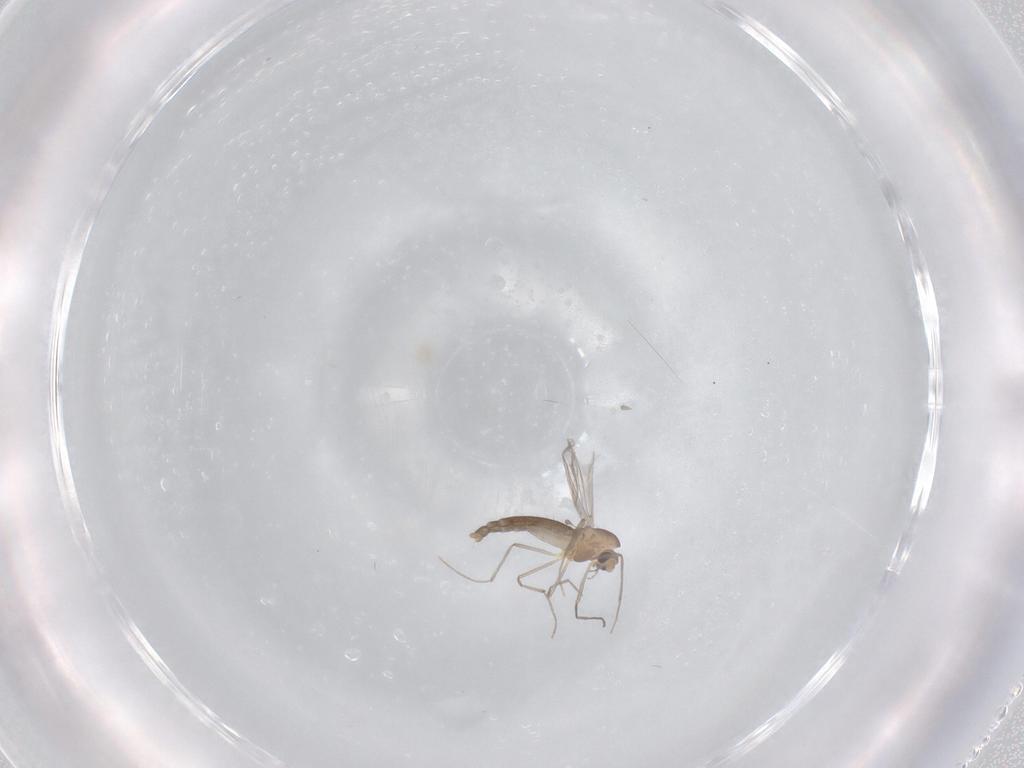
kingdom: Animalia
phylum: Arthropoda
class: Insecta
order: Diptera
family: Chironomidae
